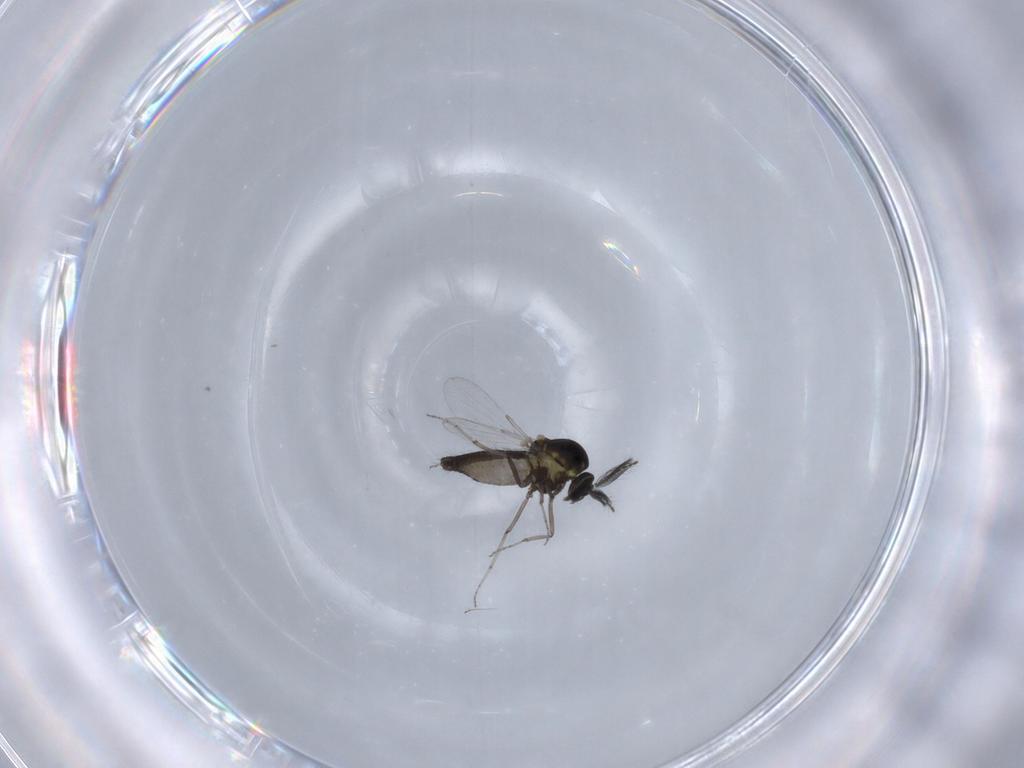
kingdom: Animalia
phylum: Arthropoda
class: Insecta
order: Diptera
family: Ceratopogonidae
